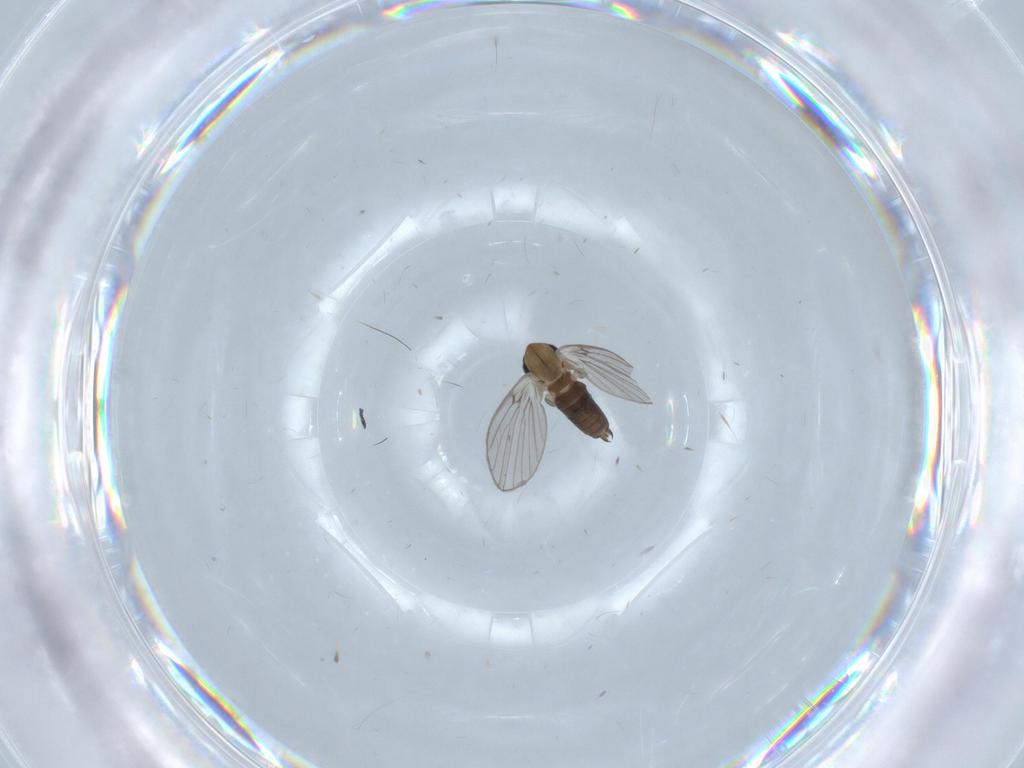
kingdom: Animalia
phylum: Arthropoda
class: Insecta
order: Diptera
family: Psychodidae
